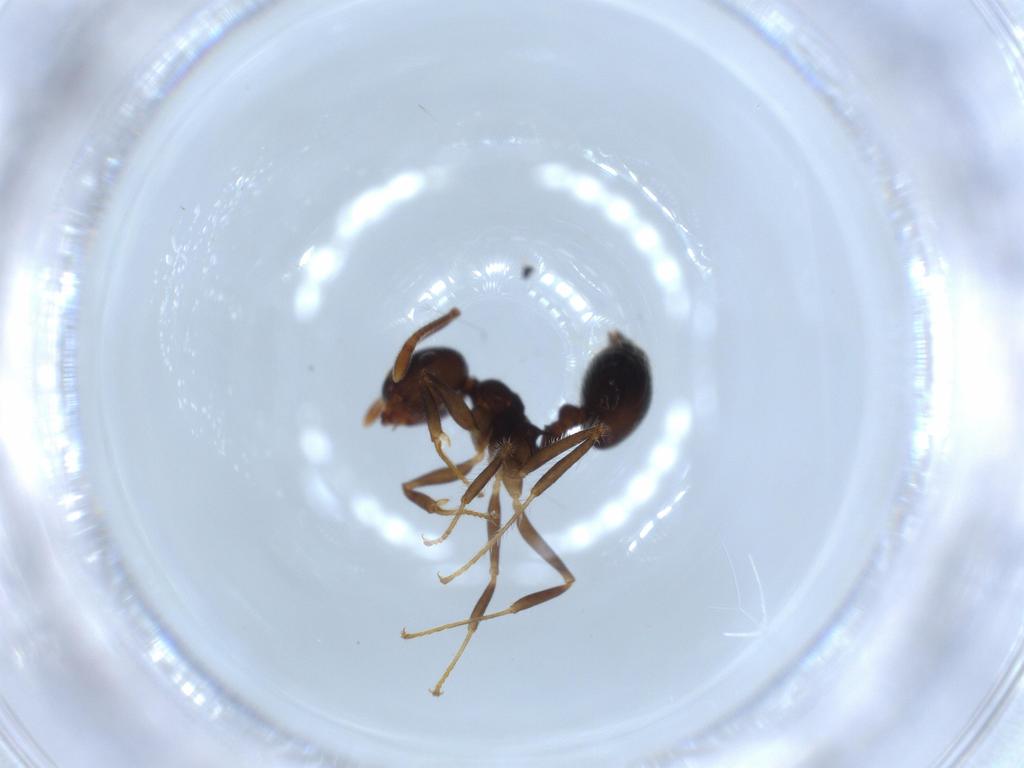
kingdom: Animalia
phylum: Arthropoda
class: Insecta
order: Hymenoptera
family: Formicidae
